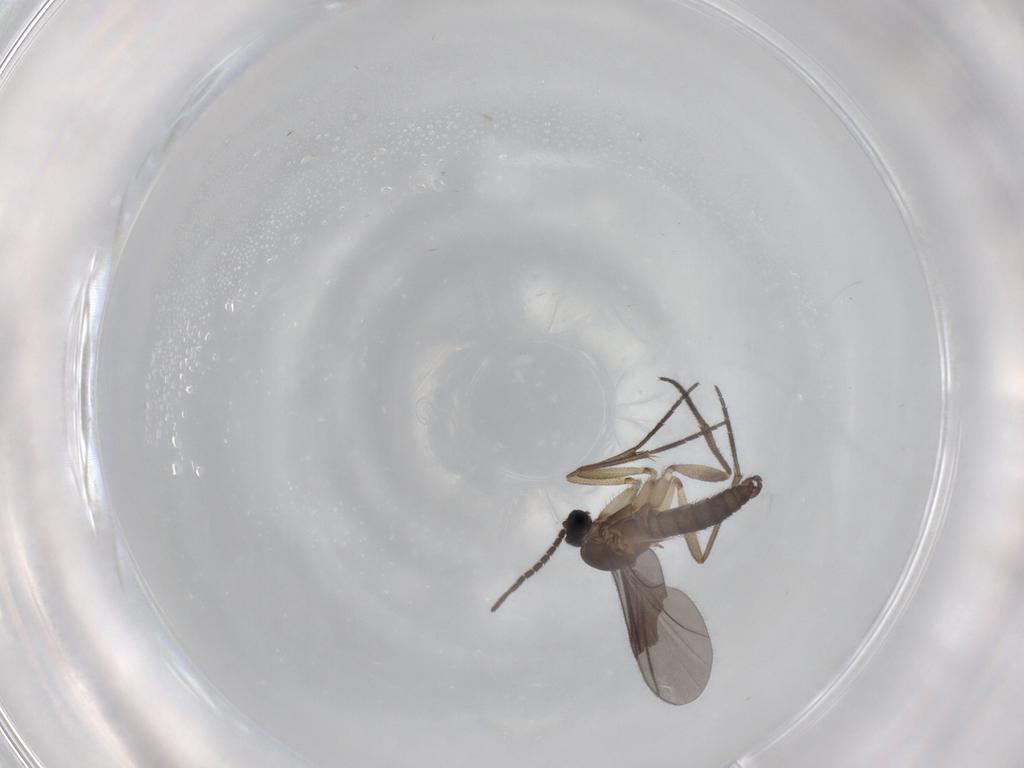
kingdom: Animalia
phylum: Arthropoda
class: Insecta
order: Diptera
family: Sciaridae
